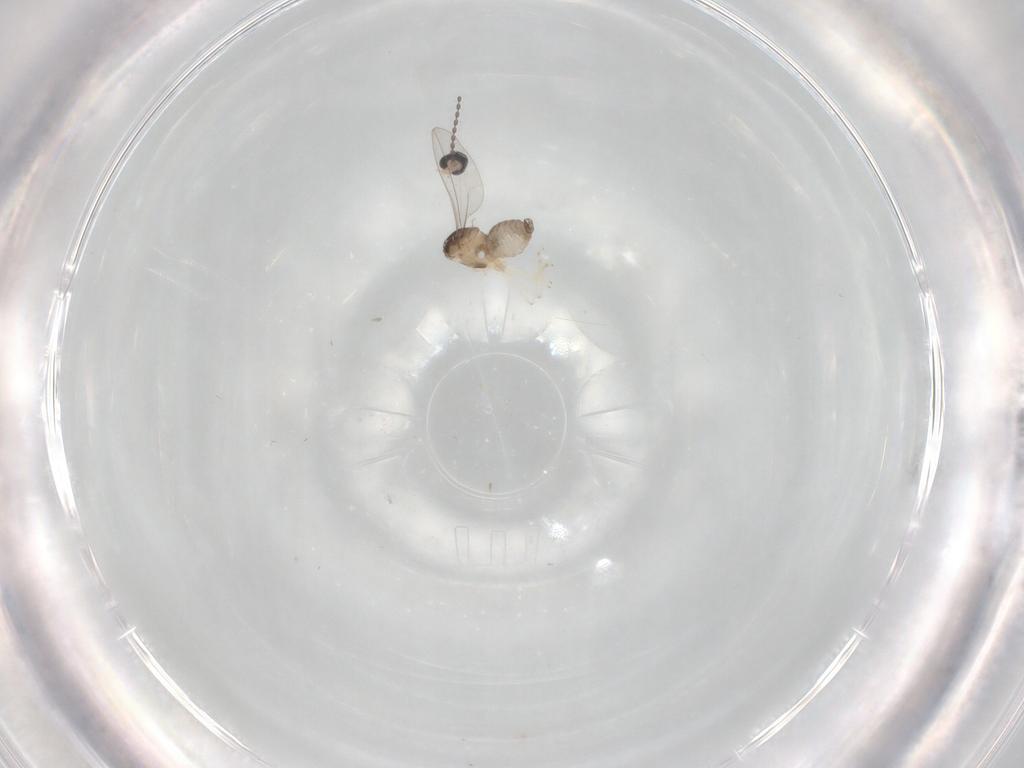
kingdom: Animalia
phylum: Arthropoda
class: Insecta
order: Diptera
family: Cecidomyiidae
